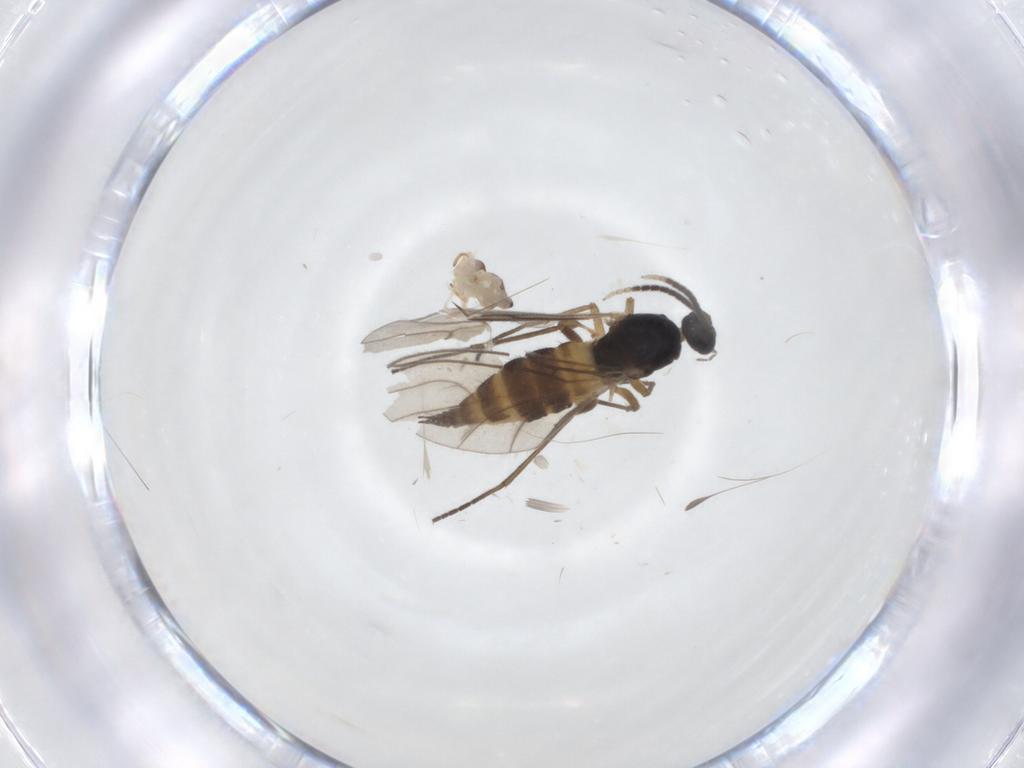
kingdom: Animalia
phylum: Arthropoda
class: Insecta
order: Diptera
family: Sciaridae
